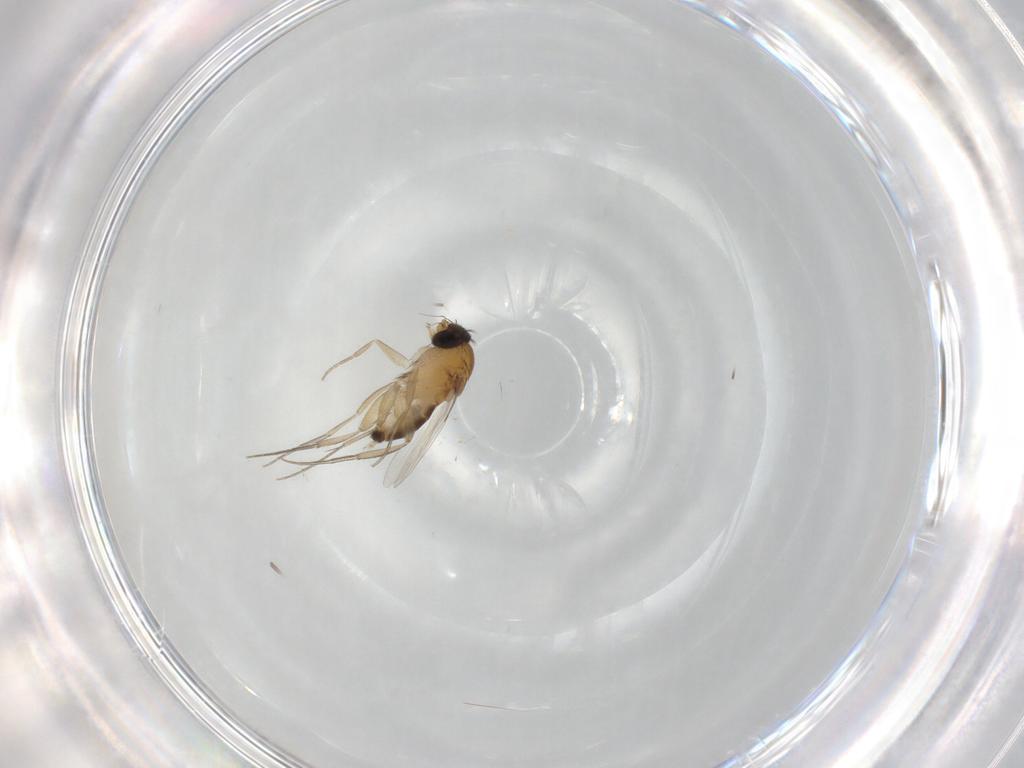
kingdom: Animalia
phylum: Arthropoda
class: Insecta
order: Diptera
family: Phoridae
